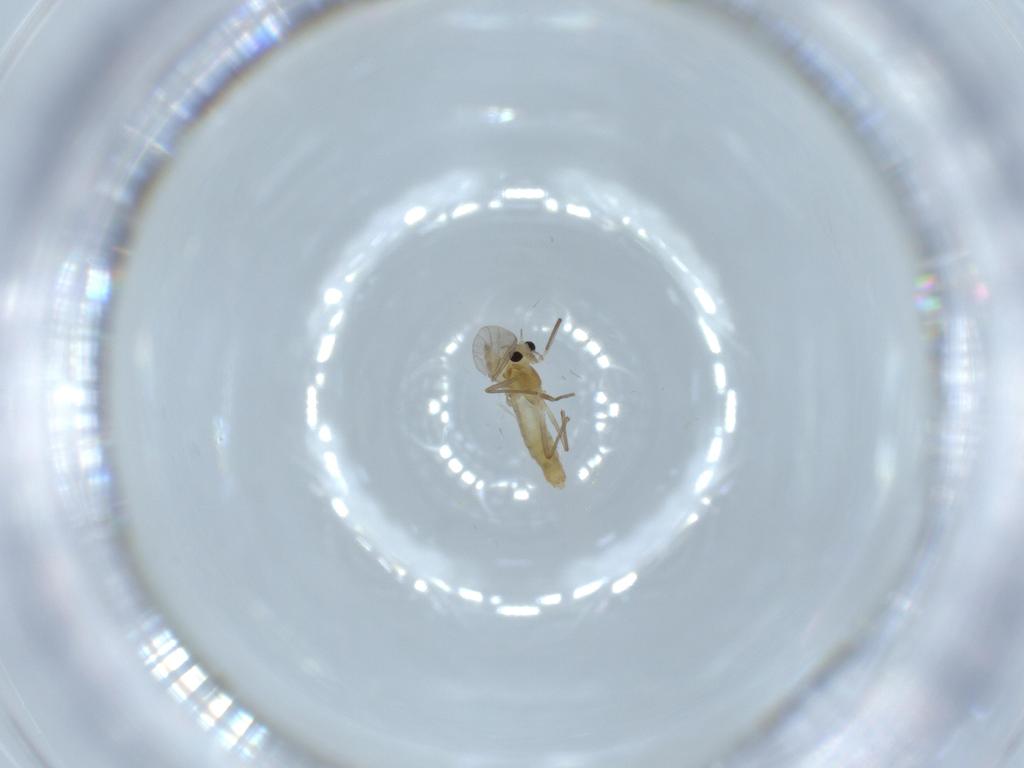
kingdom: Animalia
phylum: Arthropoda
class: Insecta
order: Diptera
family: Chironomidae
